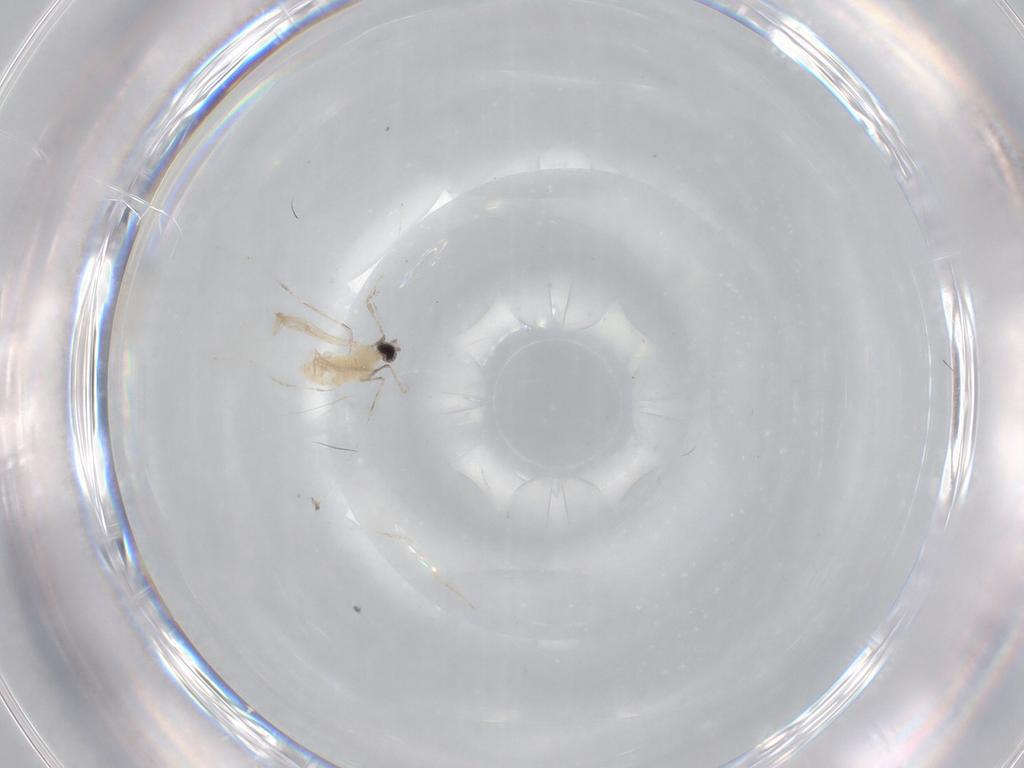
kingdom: Animalia
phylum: Arthropoda
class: Insecta
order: Diptera
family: Cecidomyiidae
